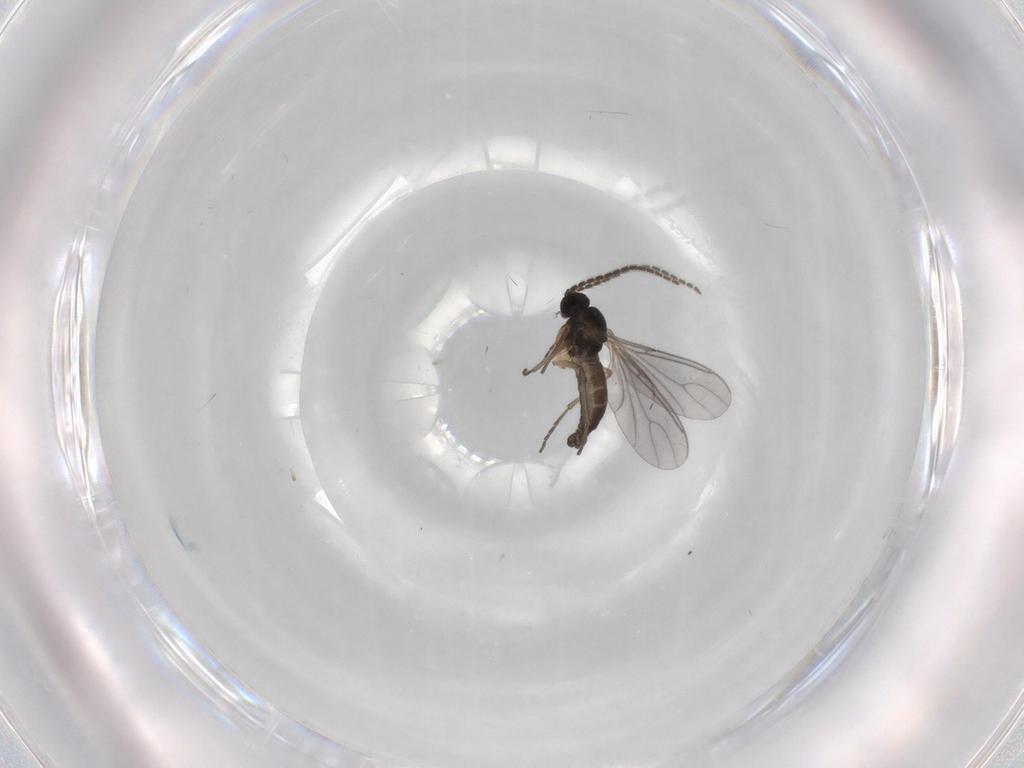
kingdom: Animalia
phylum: Arthropoda
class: Insecta
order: Diptera
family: Sciaridae
